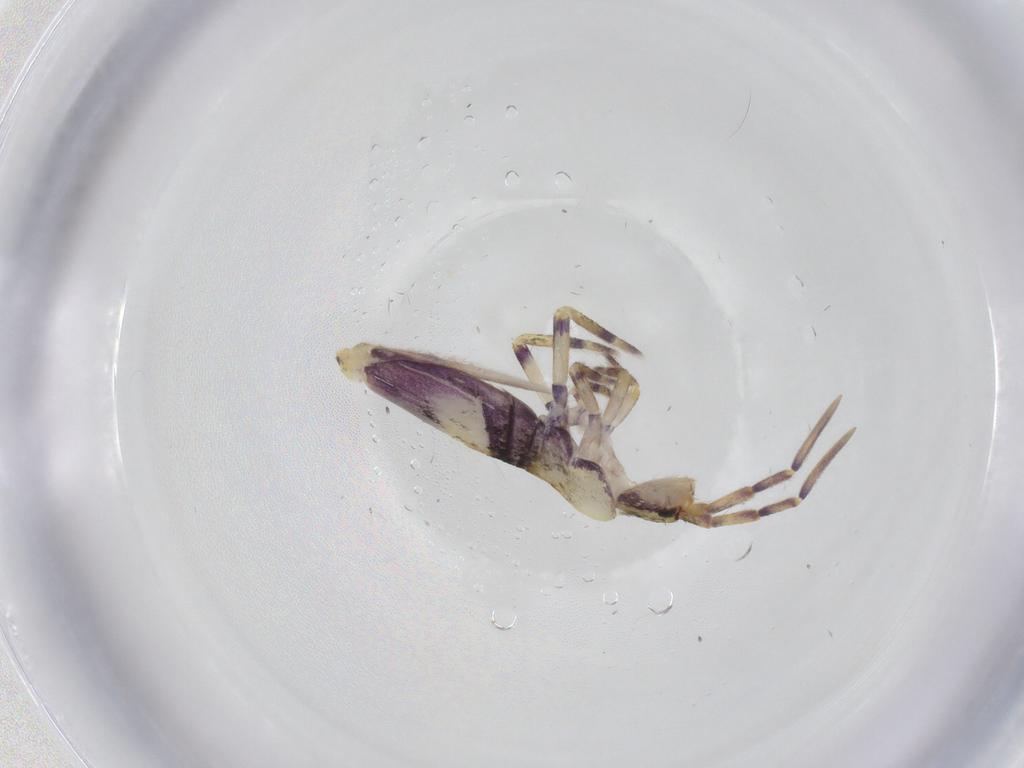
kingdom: Animalia
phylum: Arthropoda
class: Collembola
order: Entomobryomorpha
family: Entomobryidae
